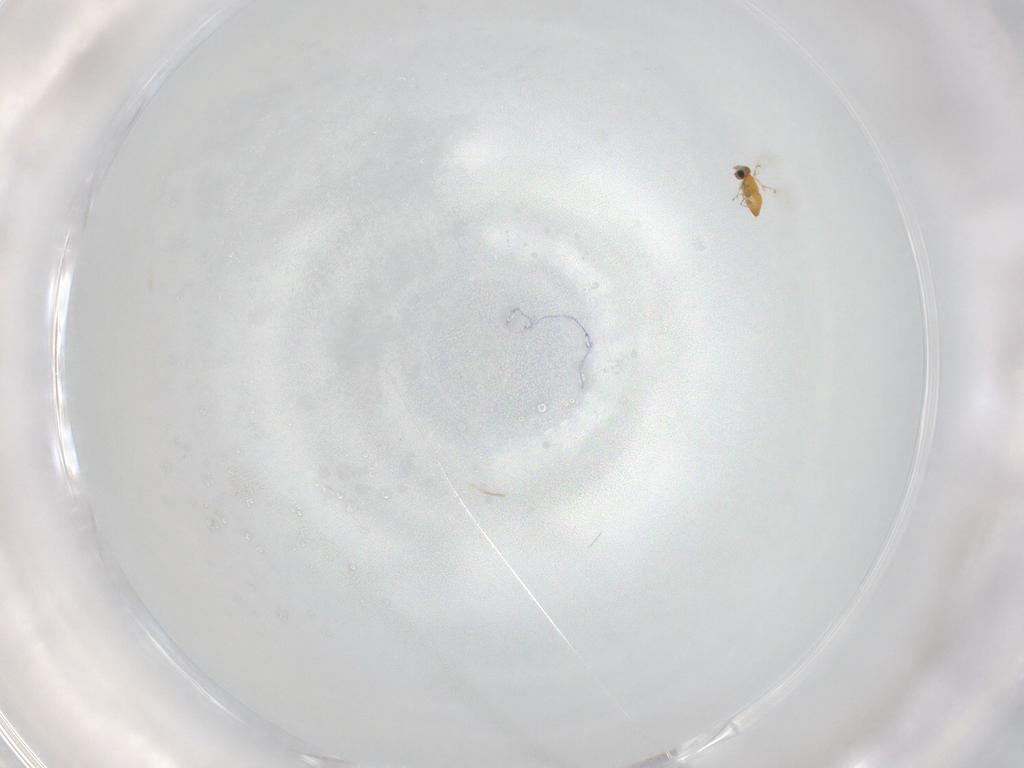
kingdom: Animalia
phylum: Arthropoda
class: Insecta
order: Hymenoptera
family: Trichogrammatidae
